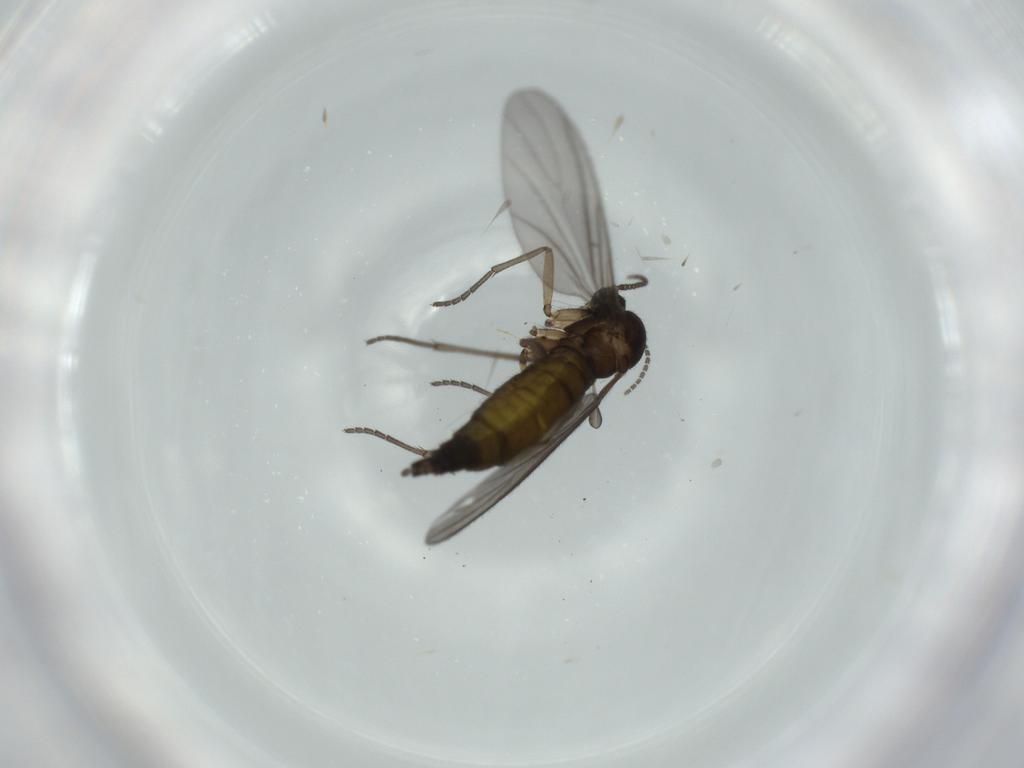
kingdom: Animalia
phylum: Arthropoda
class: Insecta
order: Diptera
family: Sciaridae
